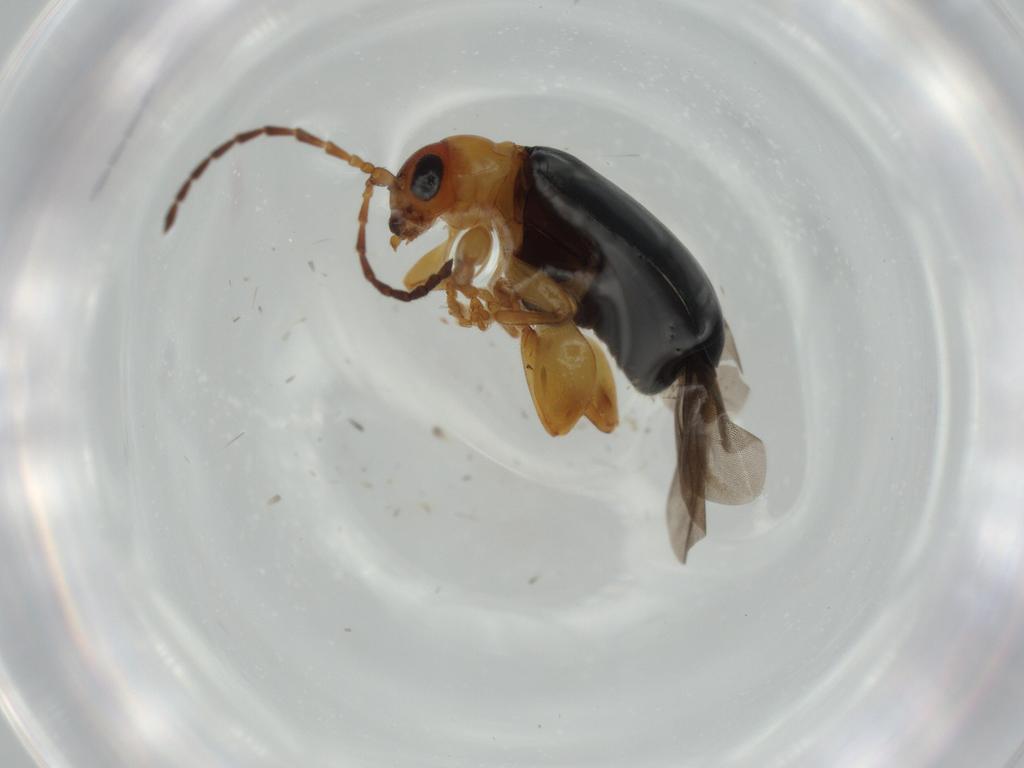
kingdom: Animalia
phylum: Arthropoda
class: Insecta
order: Coleoptera
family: Chrysomelidae
